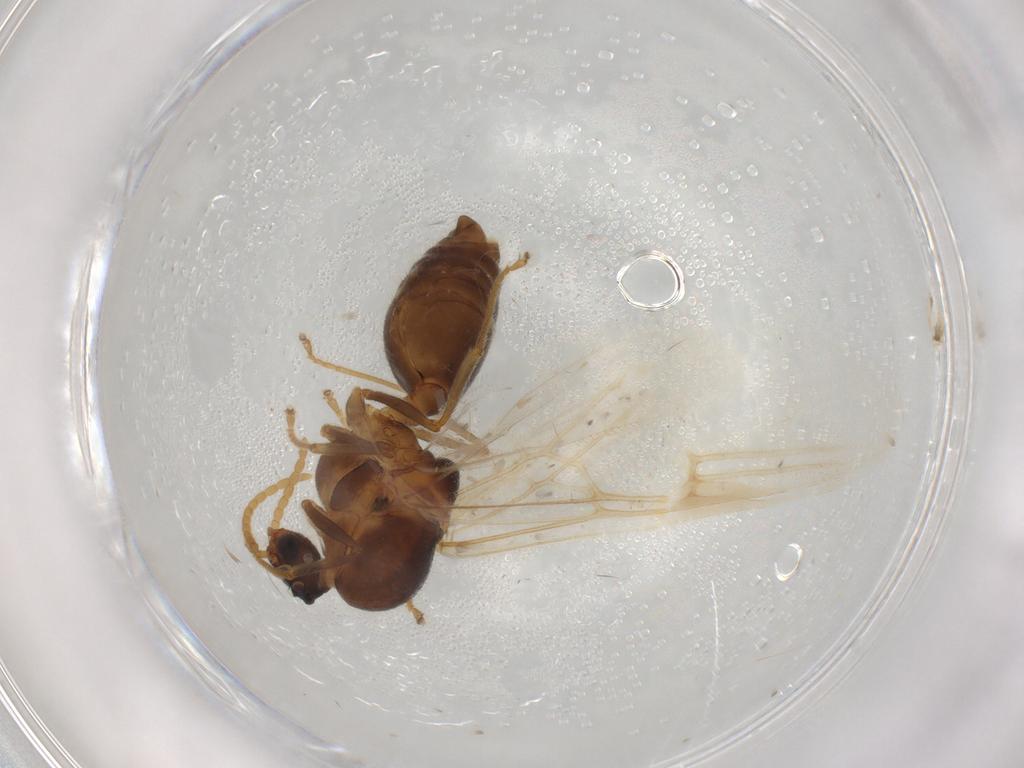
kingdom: Animalia
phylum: Arthropoda
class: Insecta
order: Hymenoptera
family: Formicidae
